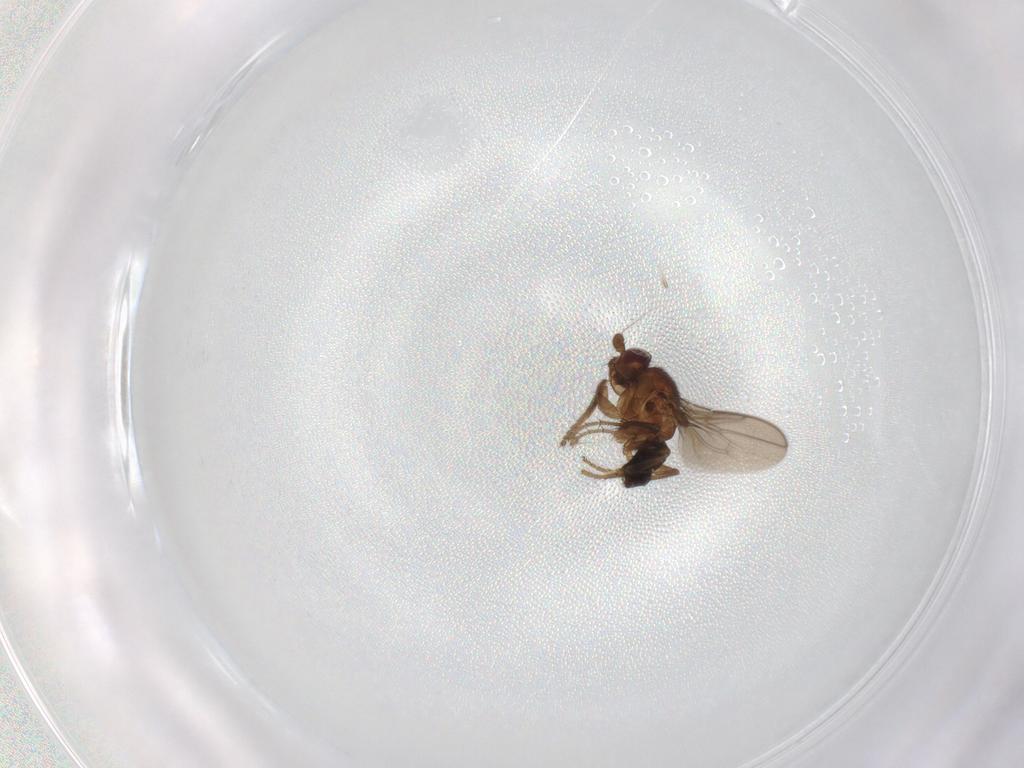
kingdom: Animalia
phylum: Arthropoda
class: Insecta
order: Diptera
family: Sphaeroceridae
